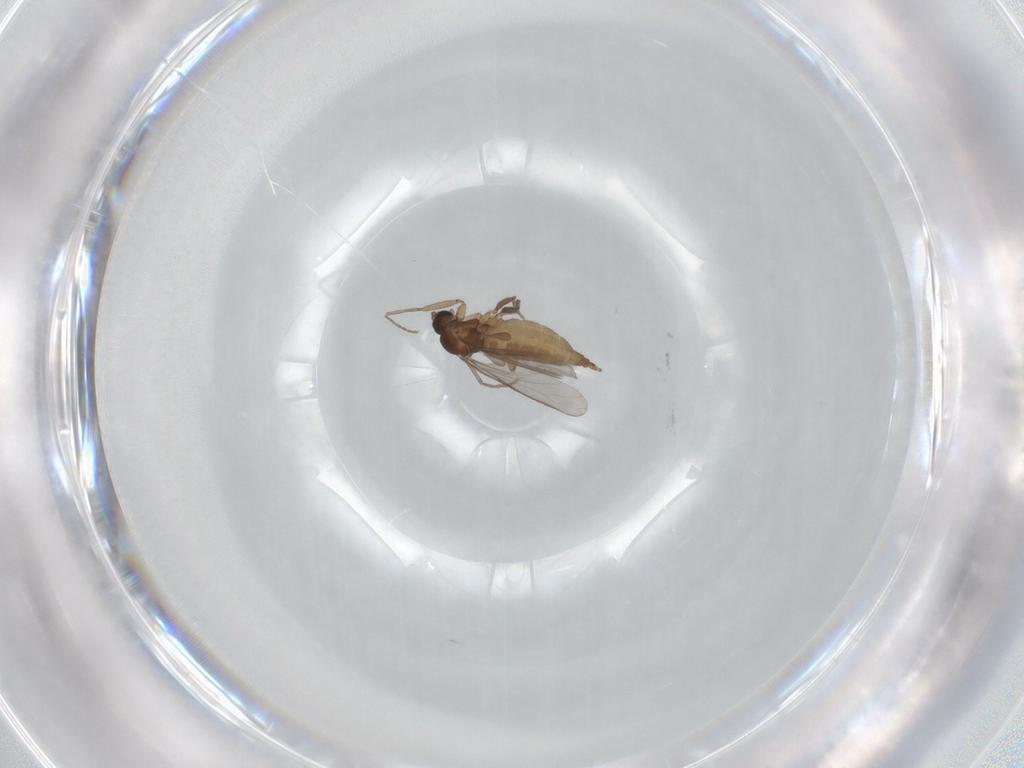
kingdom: Animalia
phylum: Arthropoda
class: Insecta
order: Diptera
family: Sciaridae
